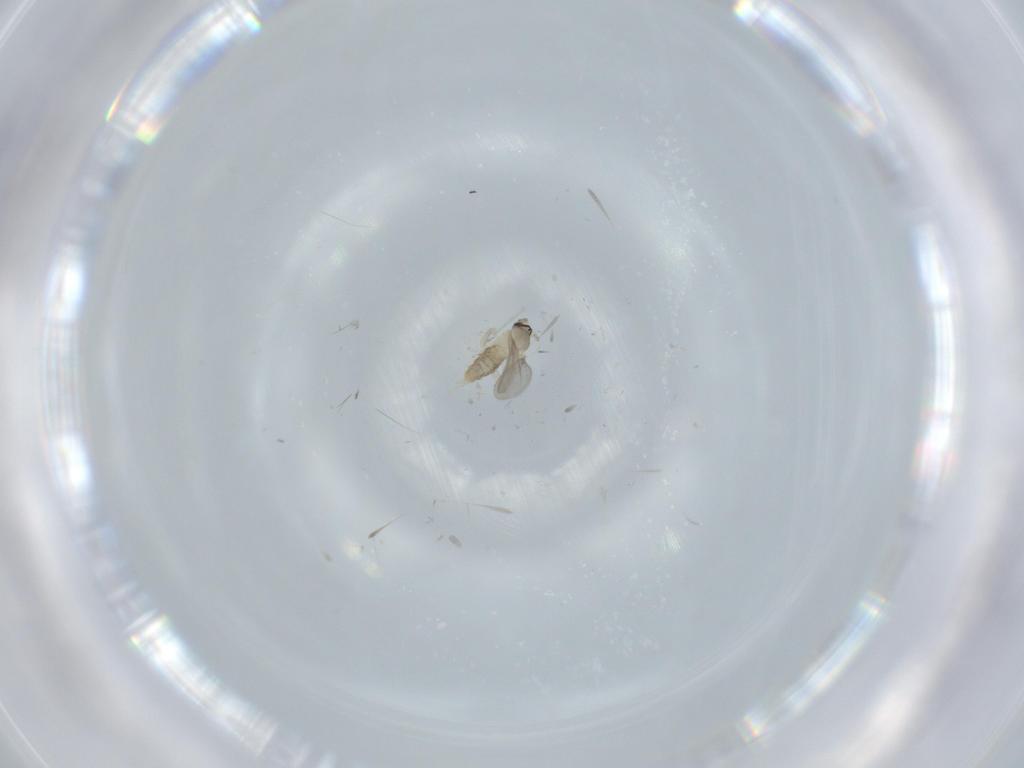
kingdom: Animalia
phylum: Arthropoda
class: Insecta
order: Diptera
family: Cecidomyiidae
